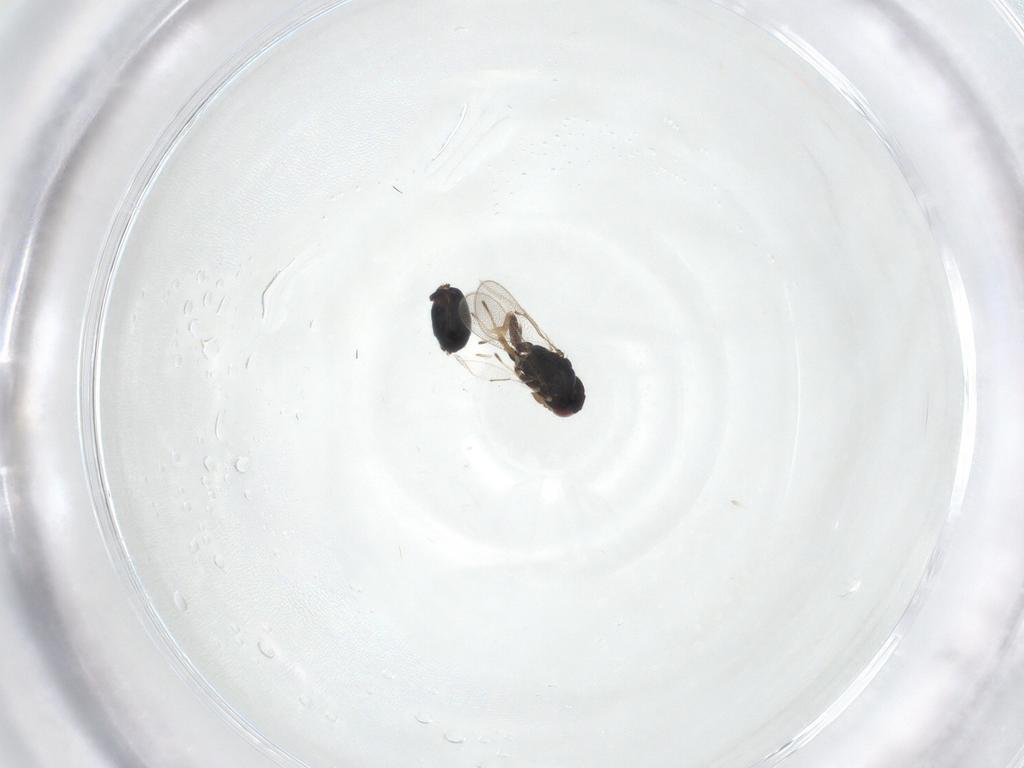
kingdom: Animalia
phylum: Arthropoda
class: Insecta
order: Hymenoptera
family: Eulophidae
